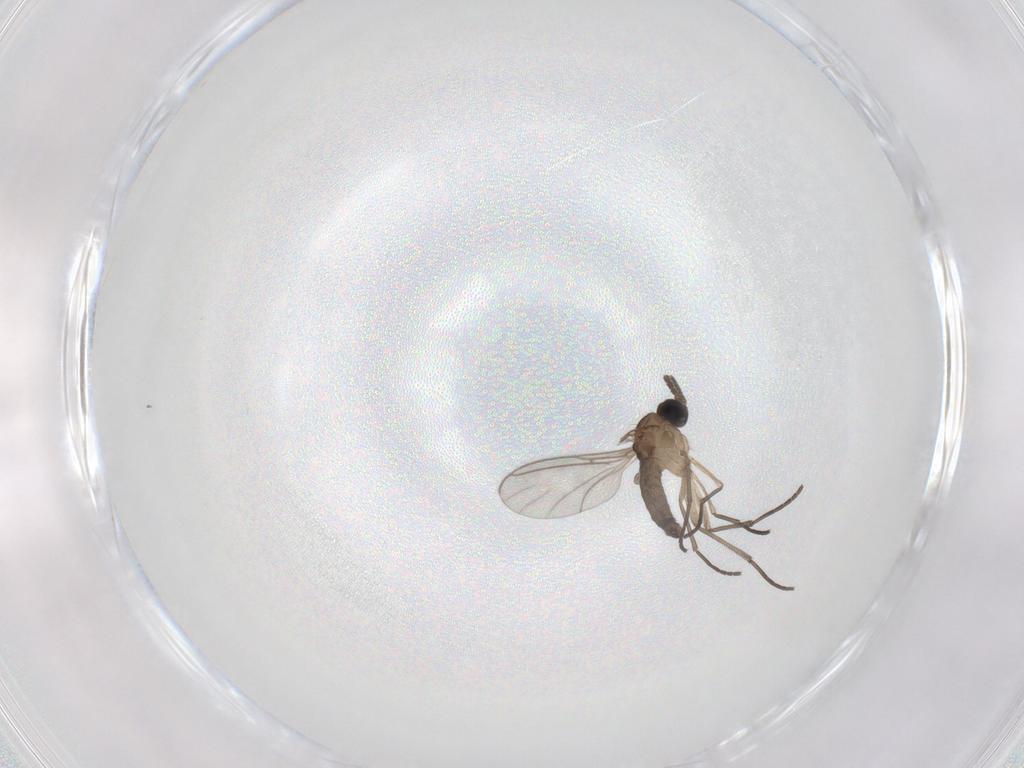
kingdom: Animalia
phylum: Arthropoda
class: Insecta
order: Diptera
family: Sciaridae
